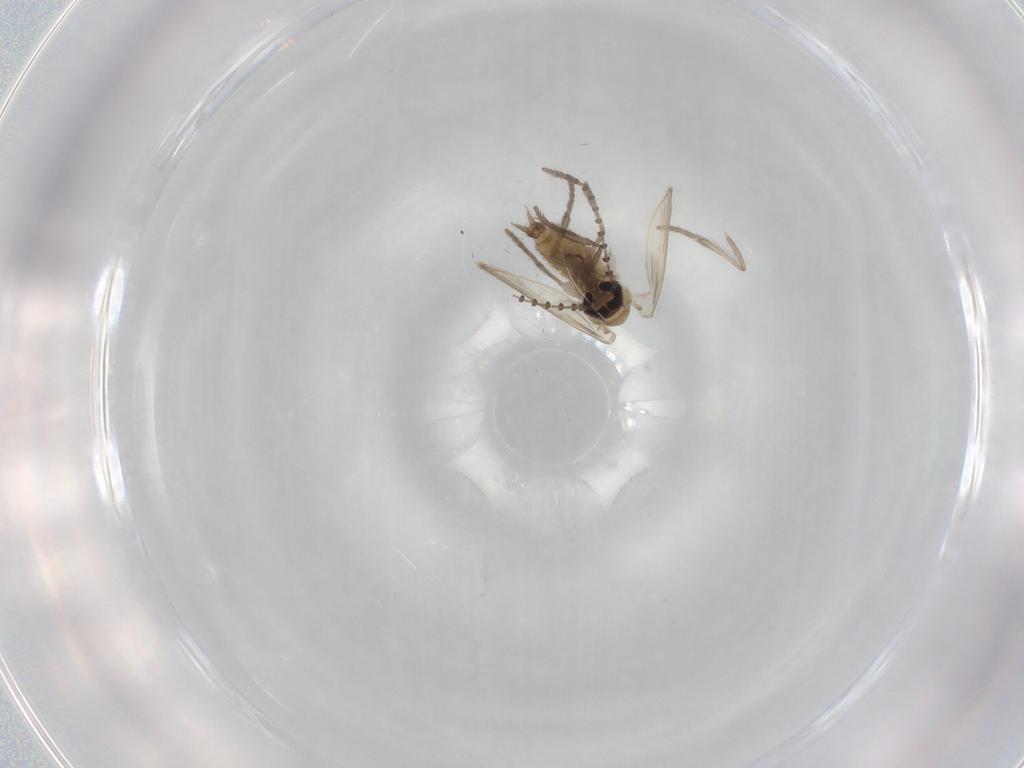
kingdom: Animalia
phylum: Arthropoda
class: Insecta
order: Diptera
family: Psychodidae
